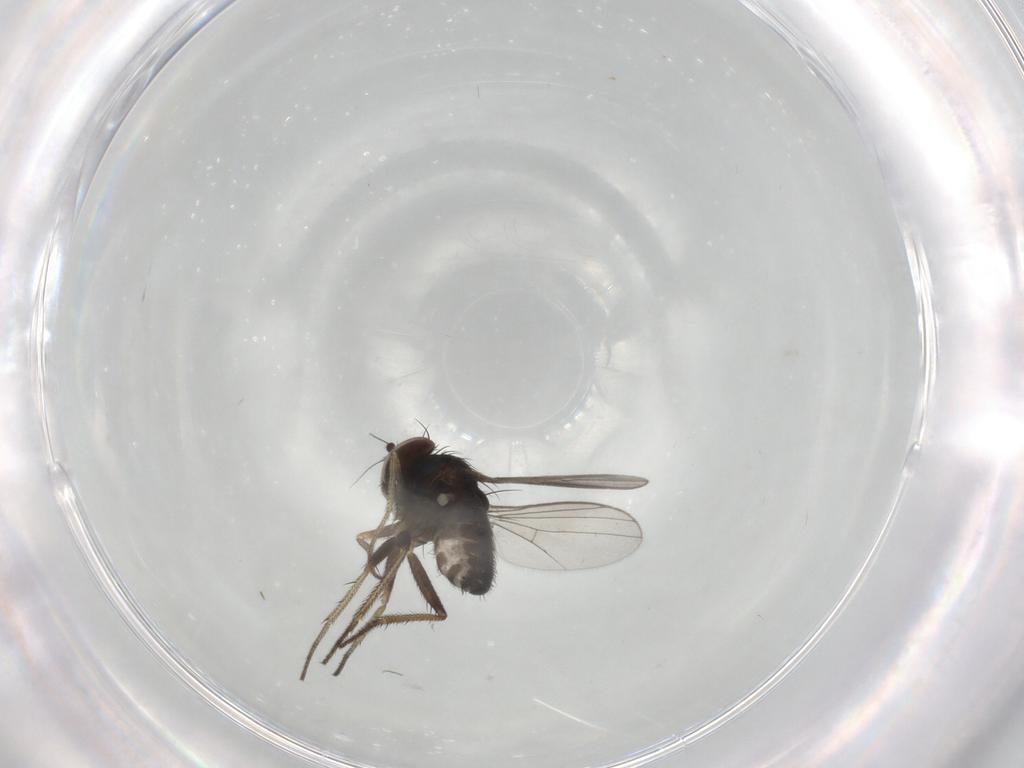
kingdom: Animalia
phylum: Arthropoda
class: Insecta
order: Diptera
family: Dolichopodidae
